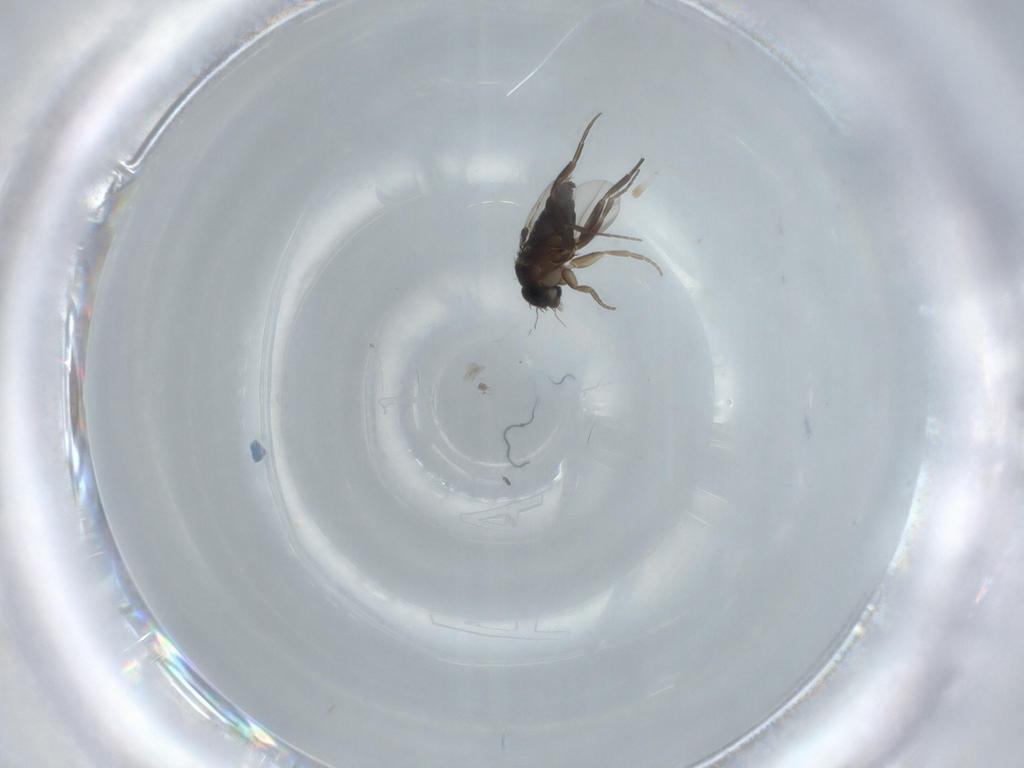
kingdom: Animalia
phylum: Arthropoda
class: Insecta
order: Diptera
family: Phoridae
